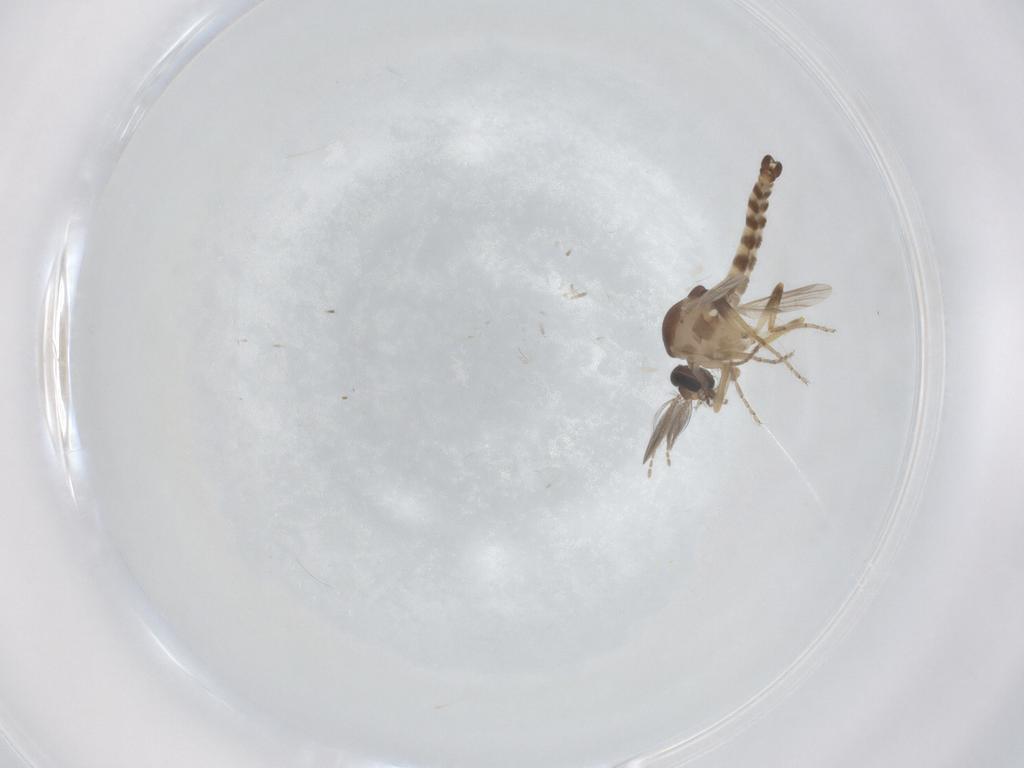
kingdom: Animalia
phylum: Arthropoda
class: Insecta
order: Diptera
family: Ceratopogonidae
